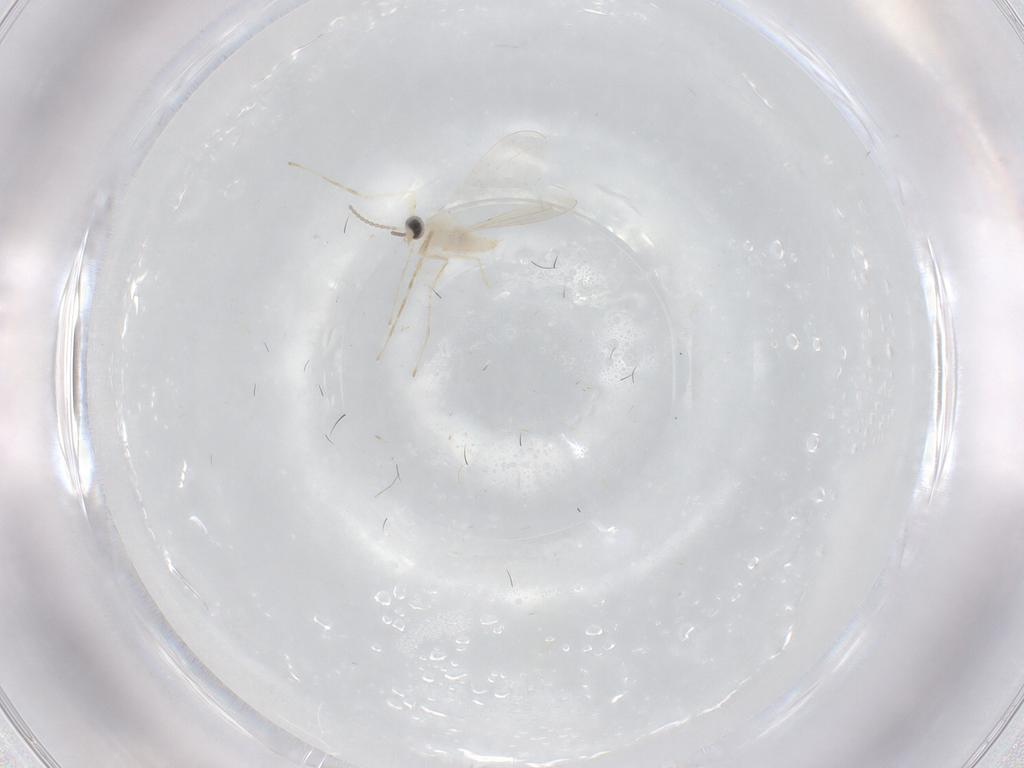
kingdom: Animalia
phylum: Arthropoda
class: Insecta
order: Diptera
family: Cecidomyiidae
